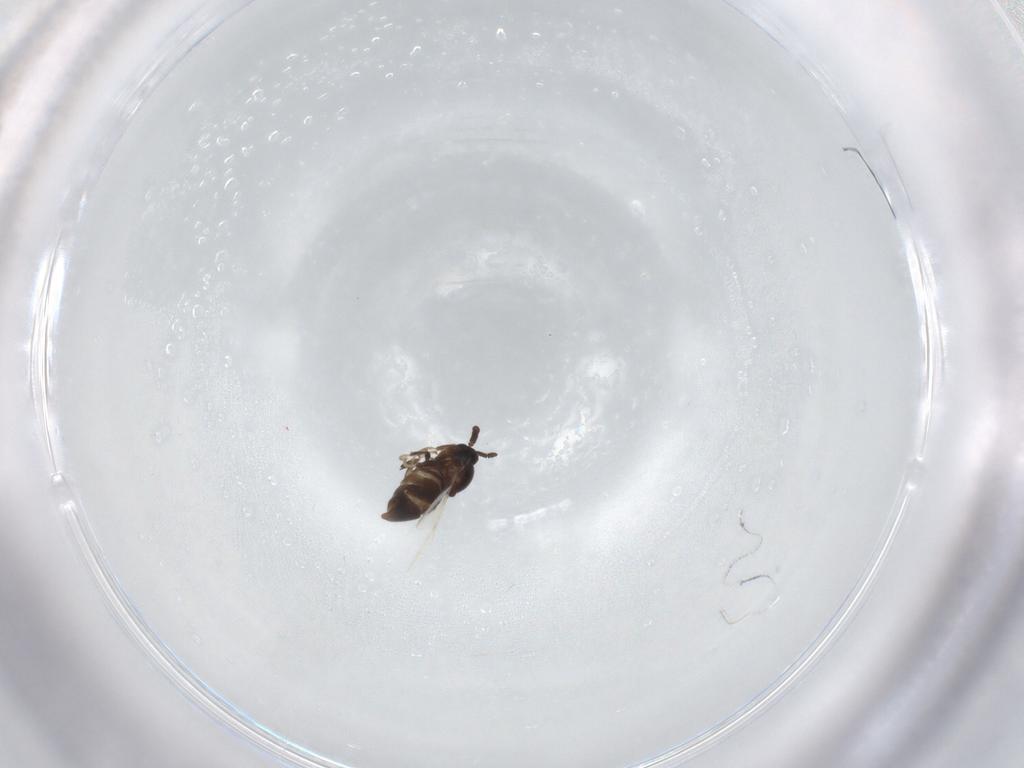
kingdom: Animalia
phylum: Arthropoda
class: Insecta
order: Diptera
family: Scatopsidae
